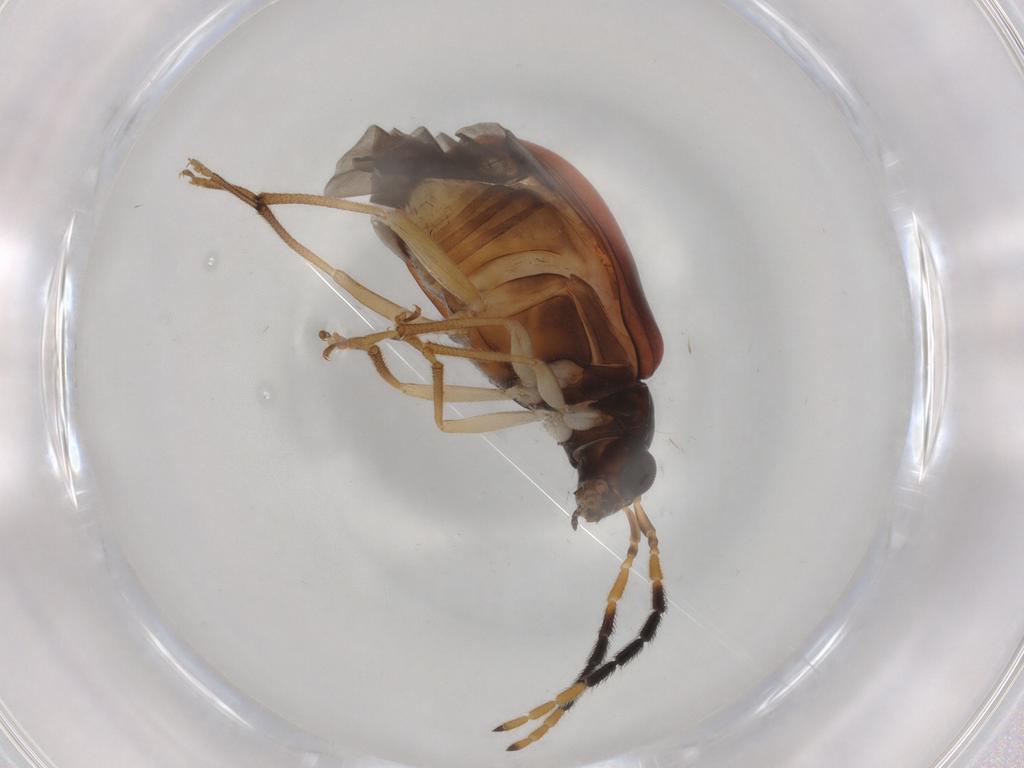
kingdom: Animalia
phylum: Arthropoda
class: Insecta
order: Coleoptera
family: Chrysomelidae
